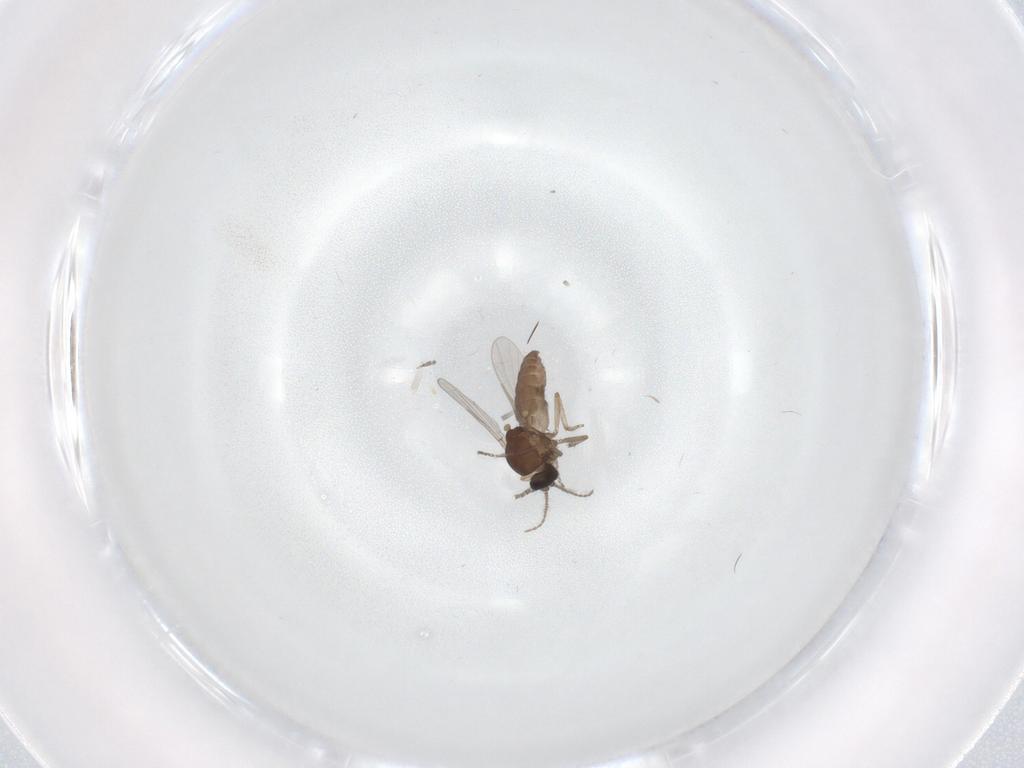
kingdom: Animalia
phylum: Arthropoda
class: Insecta
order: Diptera
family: Ceratopogonidae
